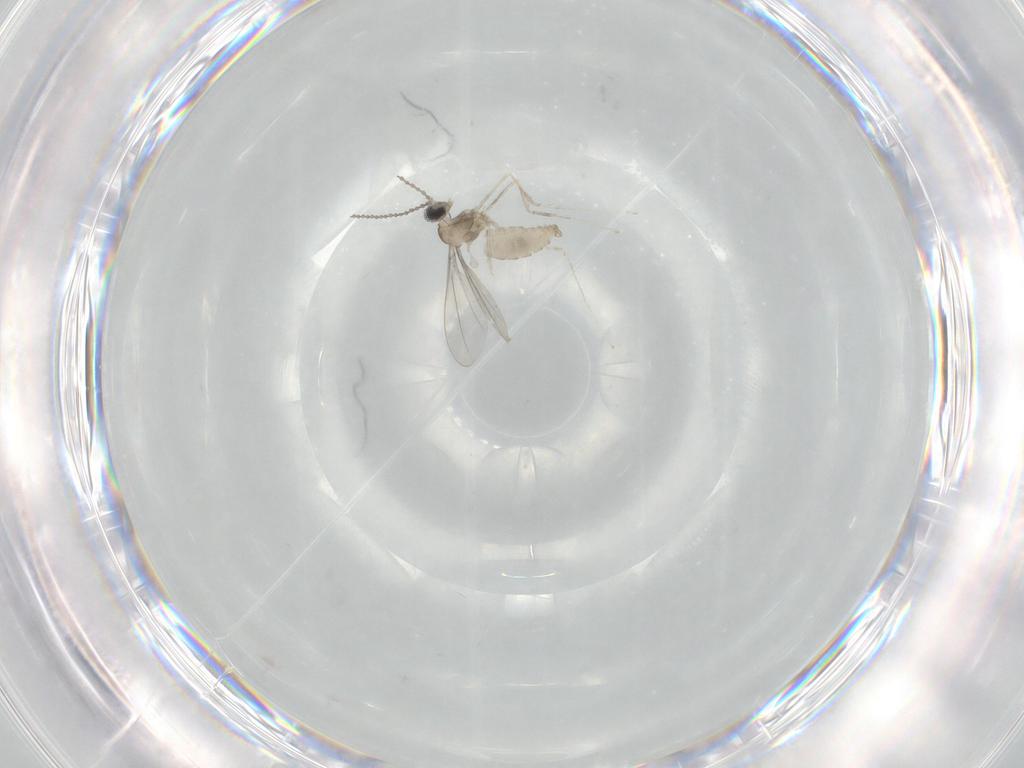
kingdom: Animalia
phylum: Arthropoda
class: Insecta
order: Diptera
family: Cecidomyiidae
